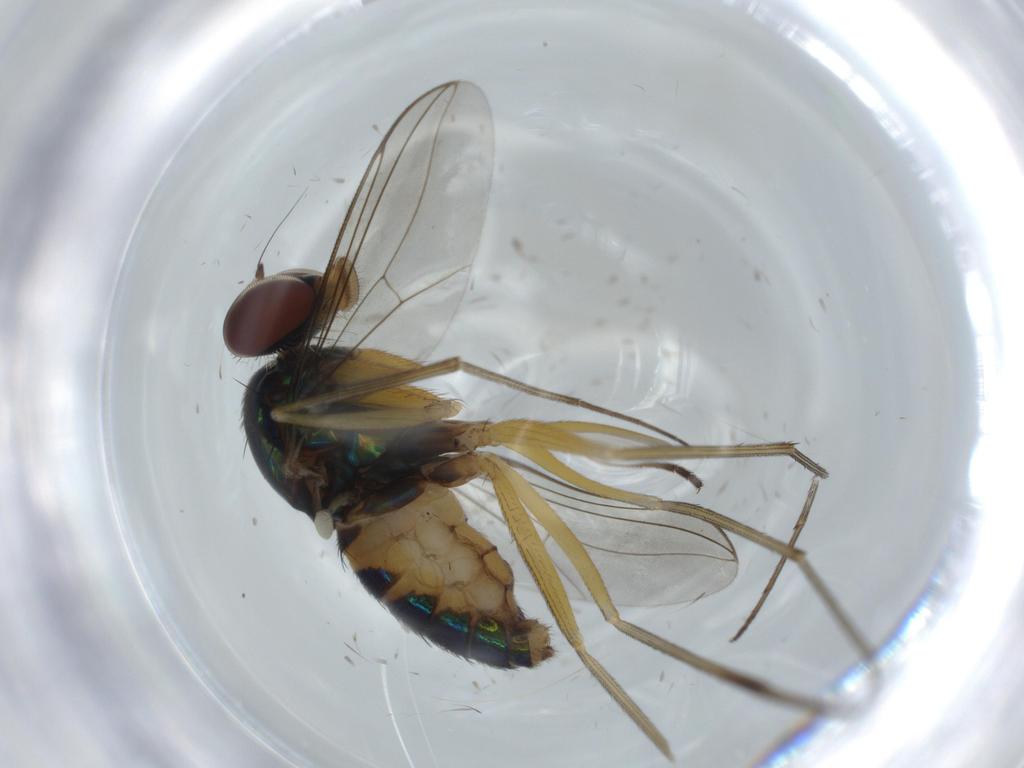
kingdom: Animalia
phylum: Arthropoda
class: Insecta
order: Diptera
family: Dolichopodidae
